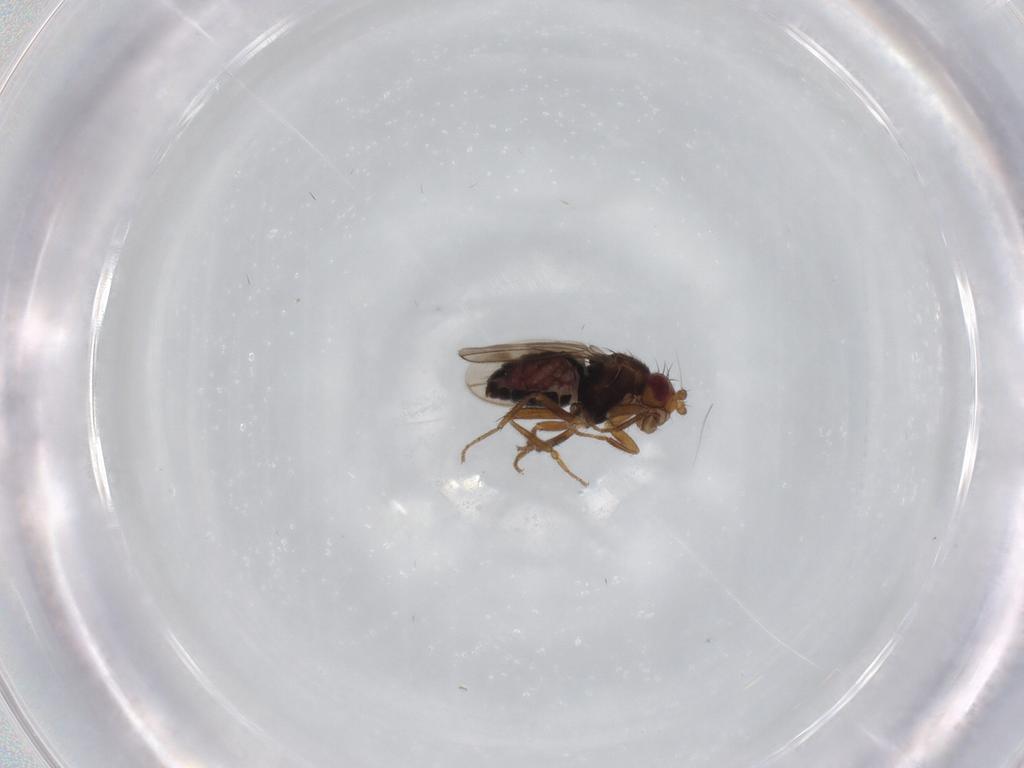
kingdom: Animalia
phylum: Arthropoda
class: Insecta
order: Diptera
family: Sphaeroceridae
